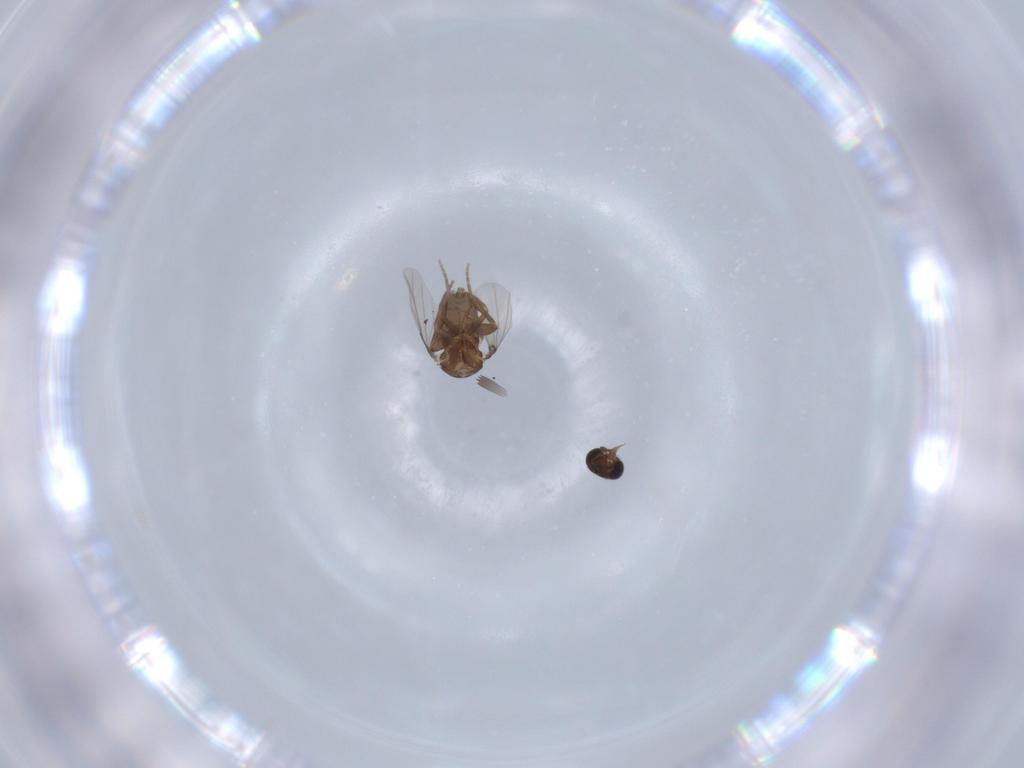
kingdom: Animalia
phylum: Arthropoda
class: Insecta
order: Diptera
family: Psychodidae
